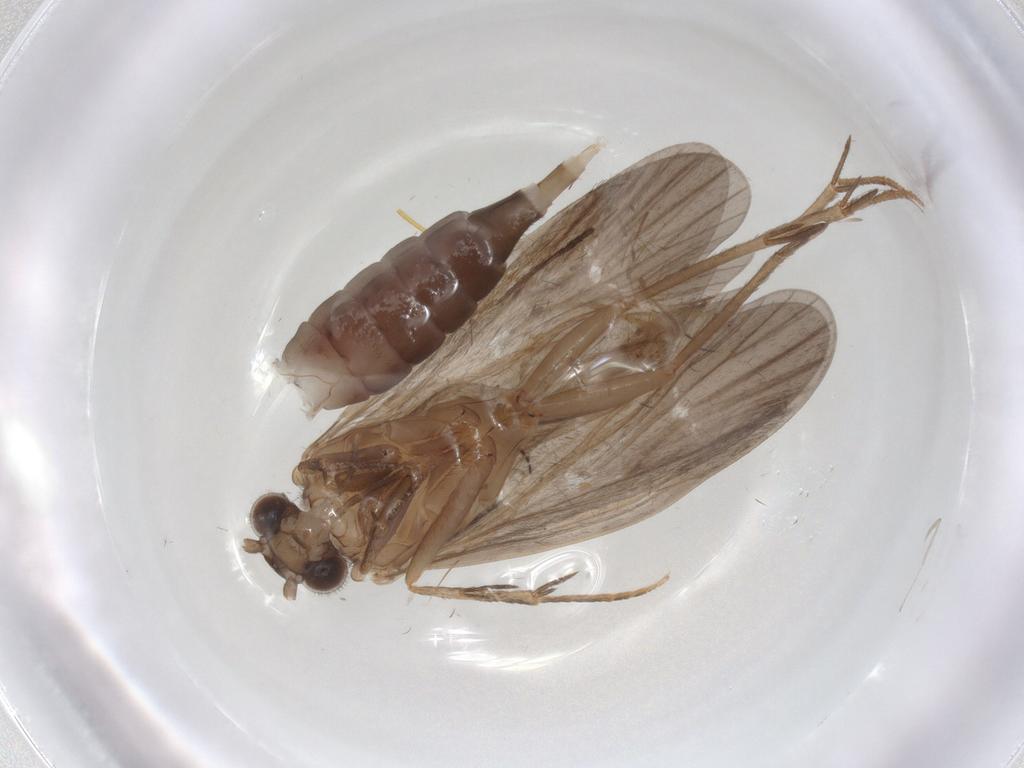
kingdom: Animalia
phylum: Arthropoda
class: Insecta
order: Trichoptera
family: Philopotamidae
